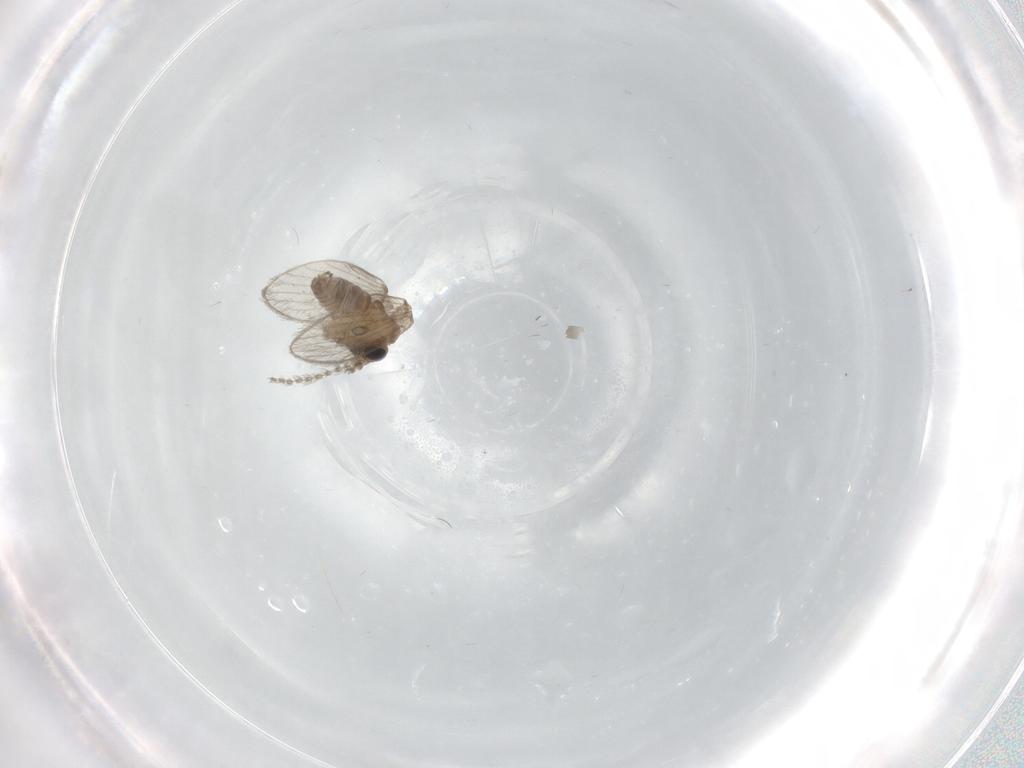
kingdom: Animalia
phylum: Arthropoda
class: Insecta
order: Diptera
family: Psychodidae
